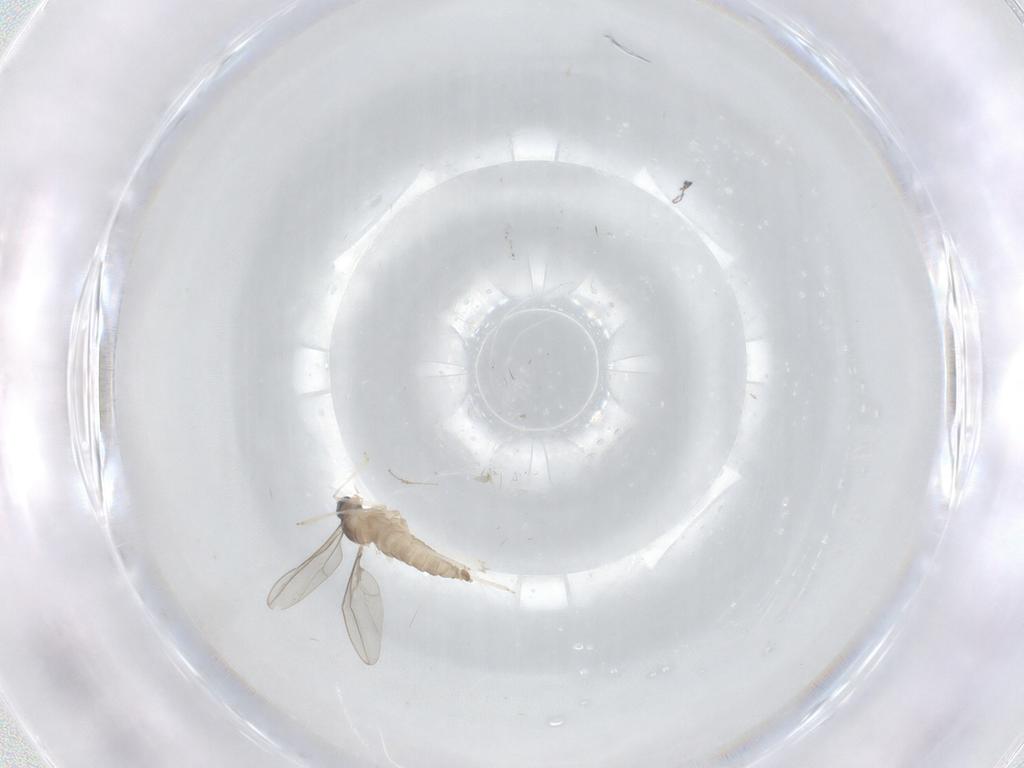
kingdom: Animalia
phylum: Arthropoda
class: Insecta
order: Diptera
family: Cecidomyiidae
